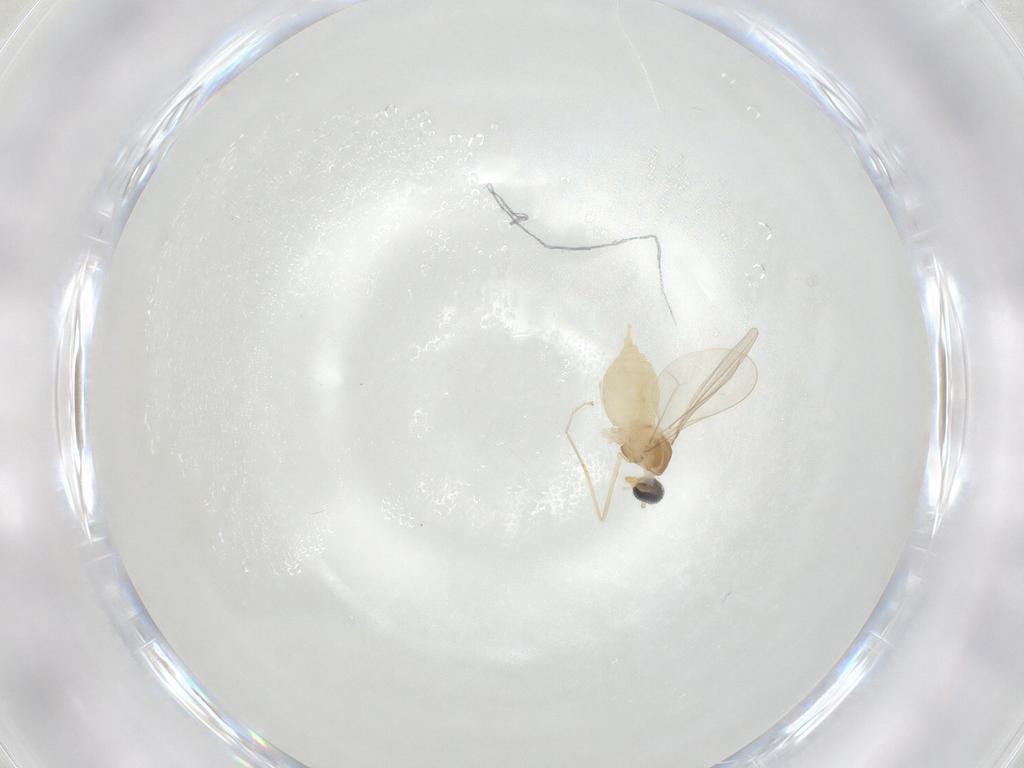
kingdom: Animalia
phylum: Arthropoda
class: Insecta
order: Diptera
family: Cecidomyiidae
